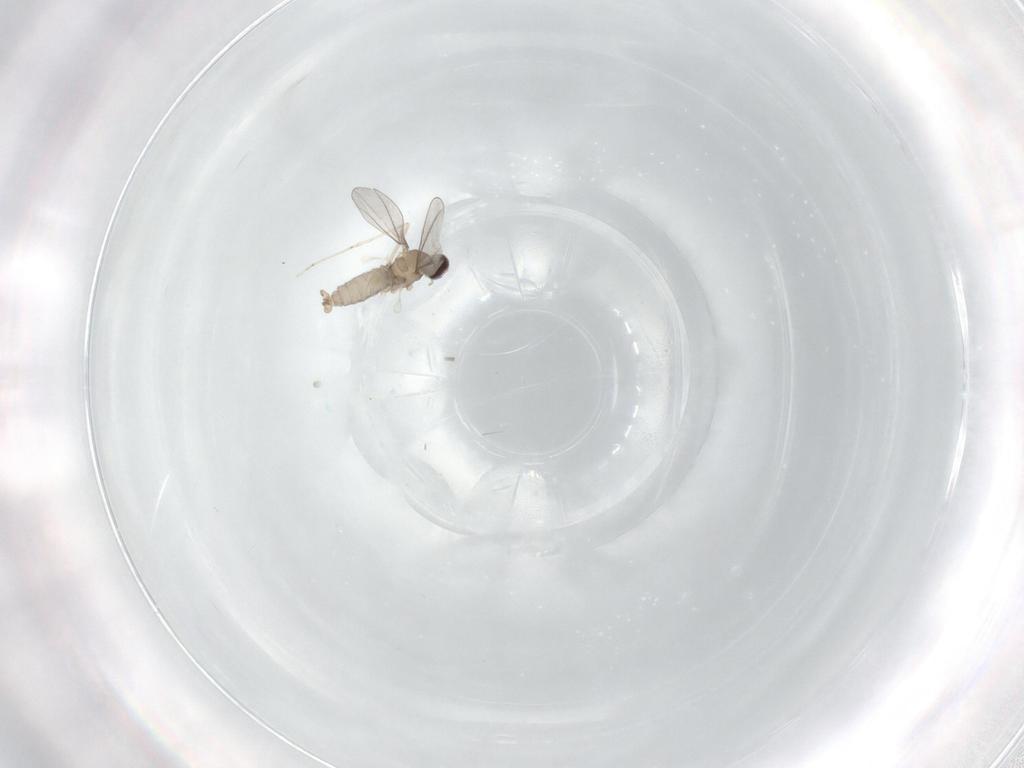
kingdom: Animalia
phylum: Arthropoda
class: Insecta
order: Diptera
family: Cecidomyiidae
